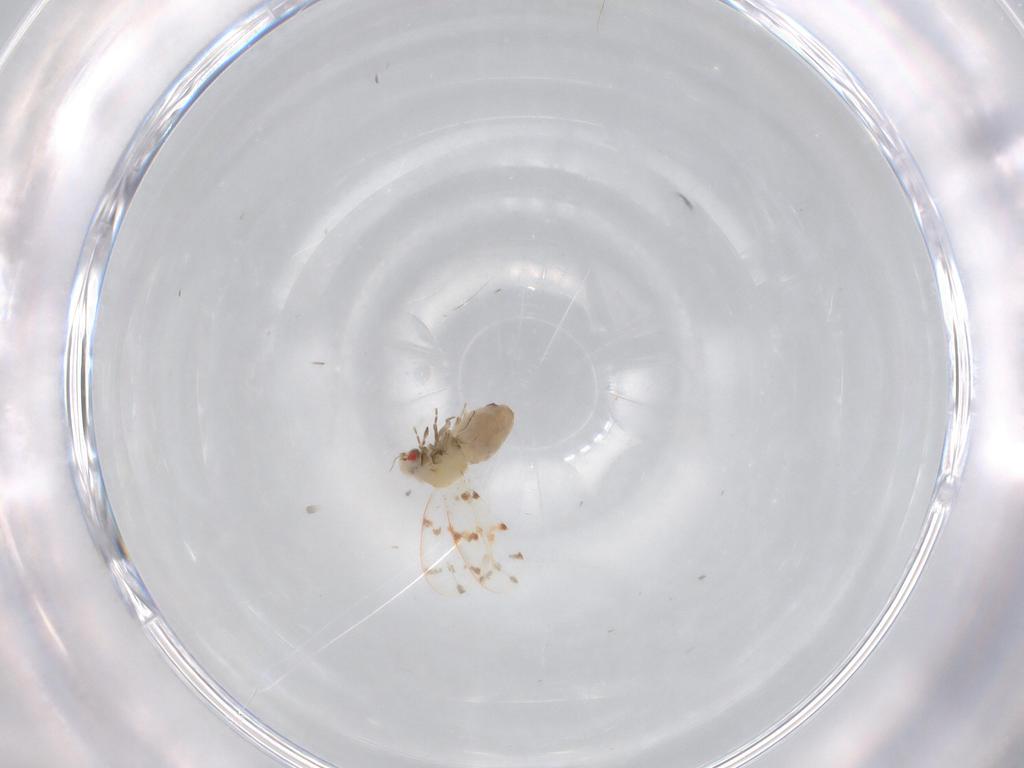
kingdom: Animalia
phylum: Arthropoda
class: Insecta
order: Hemiptera
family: Aleyrodidae
